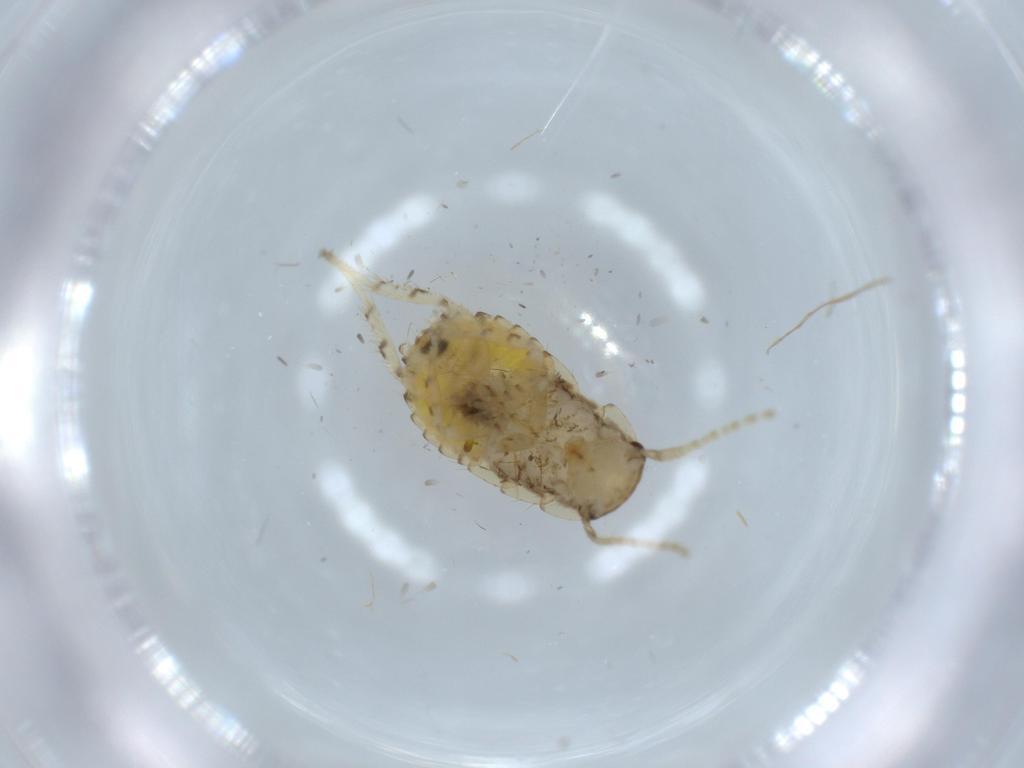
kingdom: Animalia
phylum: Arthropoda
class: Insecta
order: Blattodea
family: Ectobiidae
